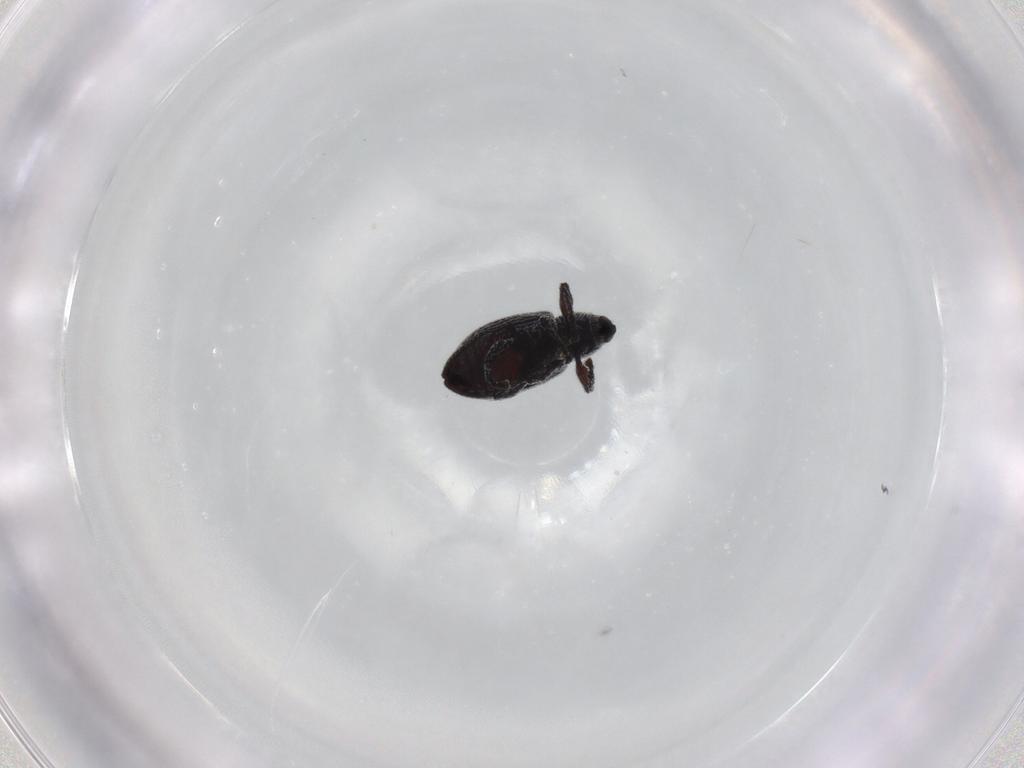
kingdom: Animalia
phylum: Arthropoda
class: Insecta
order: Coleoptera
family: Curculionidae
